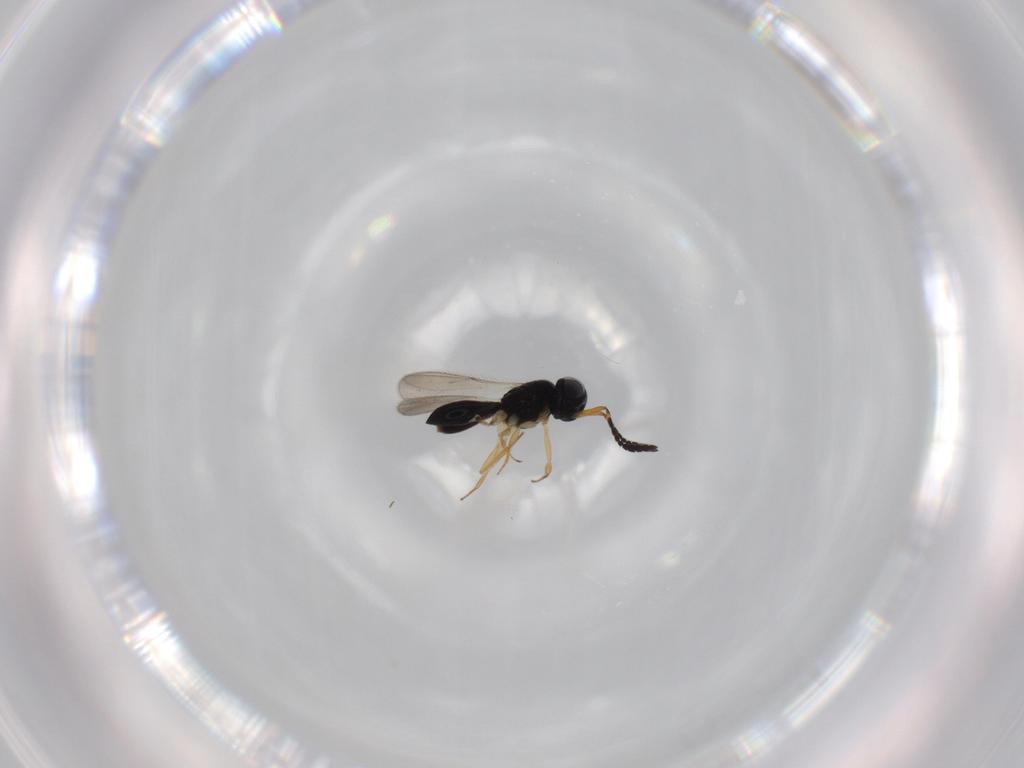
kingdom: Animalia
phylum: Arthropoda
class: Insecta
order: Hymenoptera
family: Scelionidae
